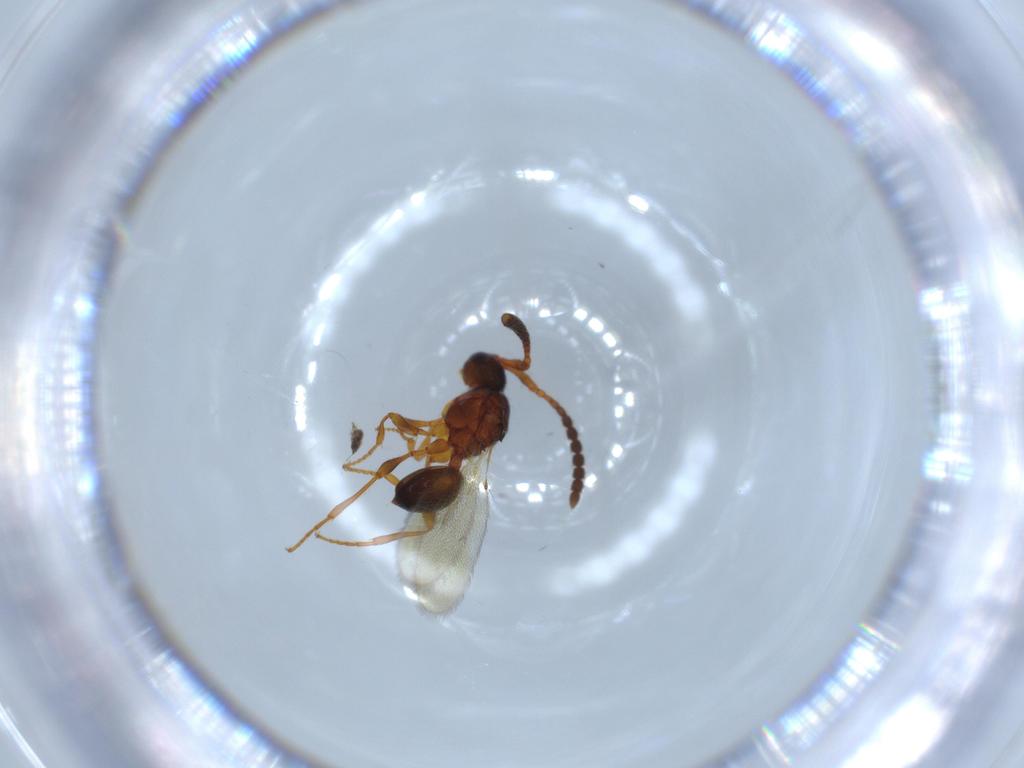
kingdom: Animalia
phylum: Arthropoda
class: Insecta
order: Hymenoptera
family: Diapriidae
